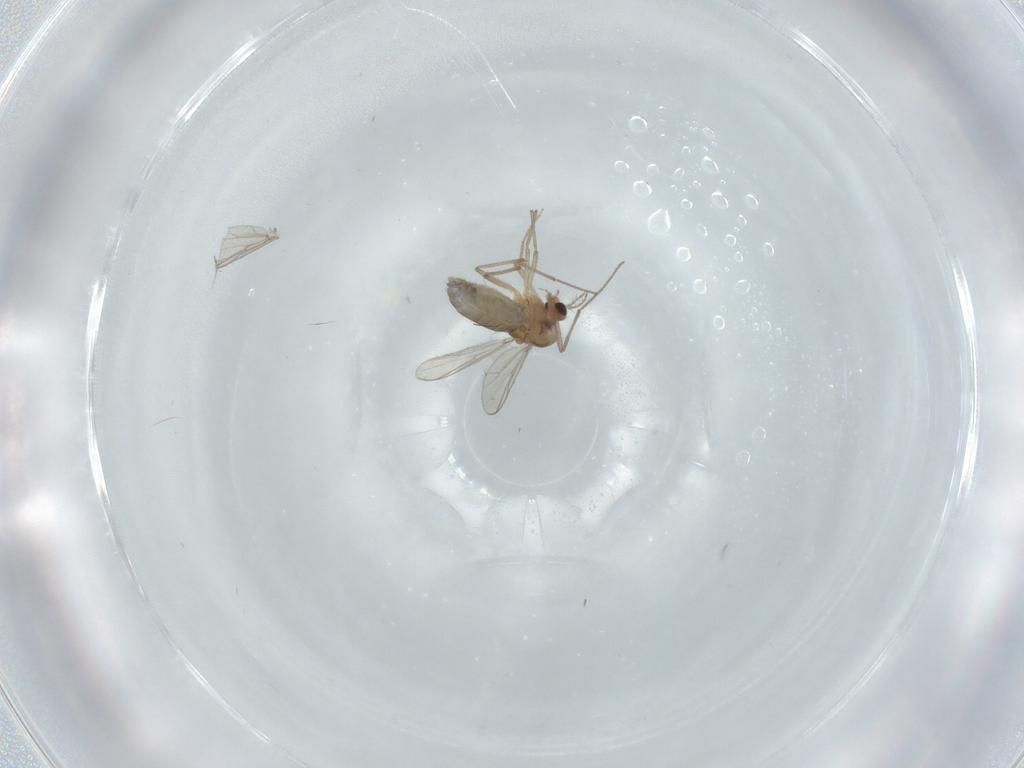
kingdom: Animalia
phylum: Arthropoda
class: Insecta
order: Diptera
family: Chironomidae
